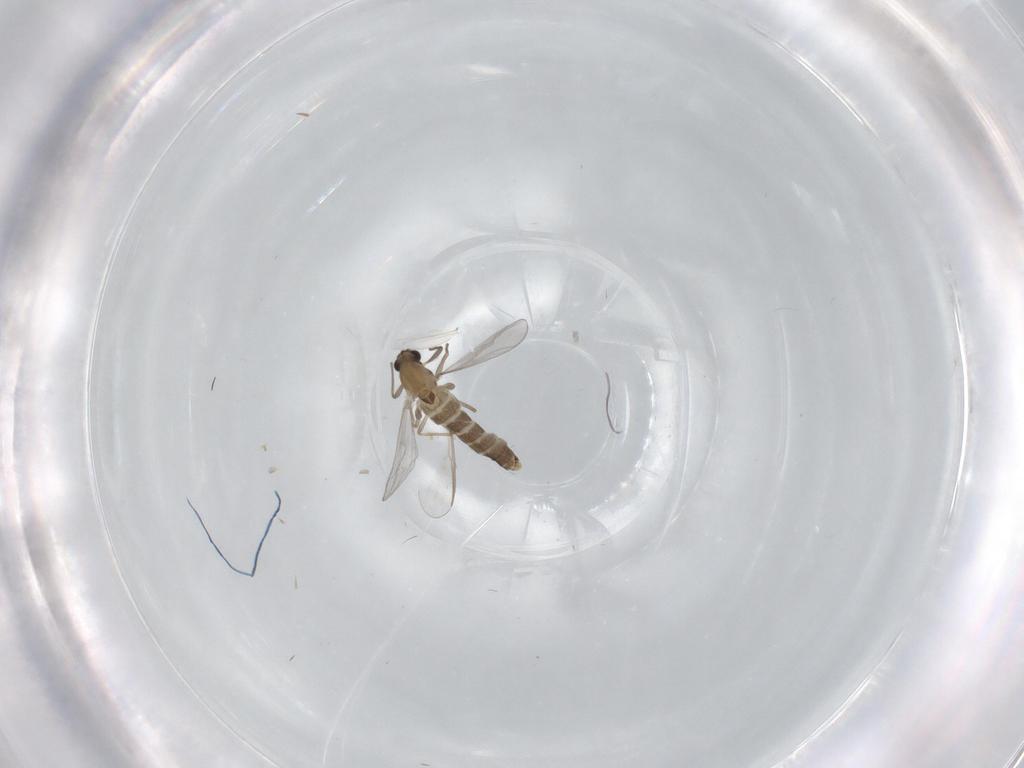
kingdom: Animalia
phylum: Arthropoda
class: Insecta
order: Diptera
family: Chironomidae
